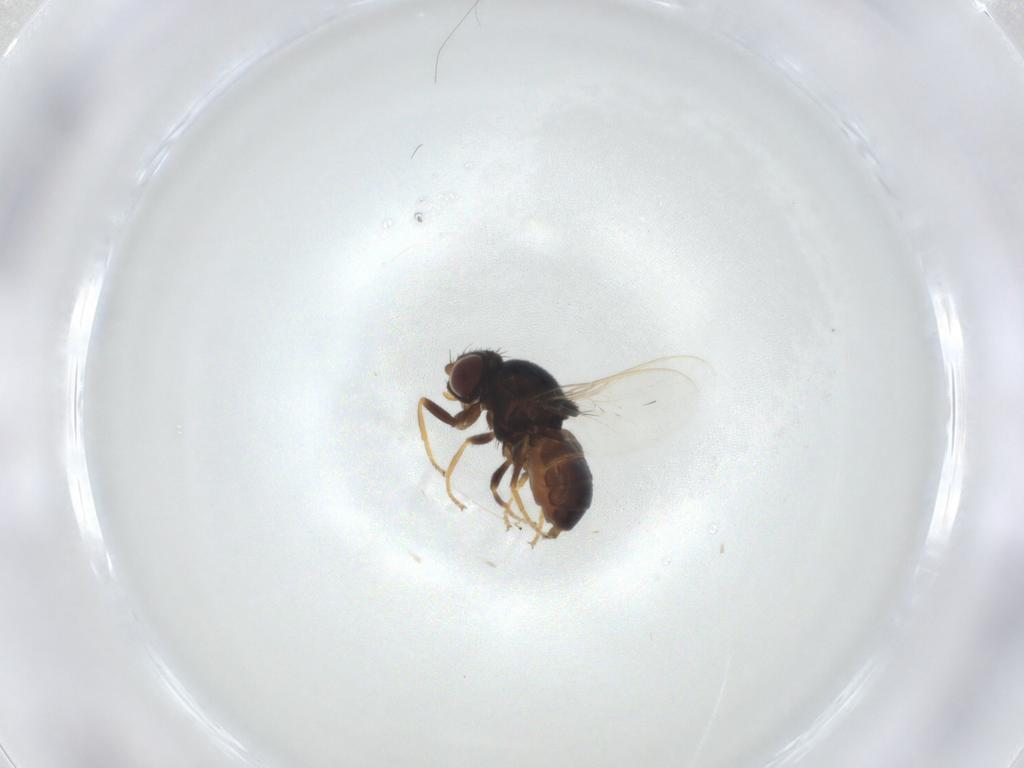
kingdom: Animalia
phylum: Arthropoda
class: Insecta
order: Diptera
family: Chloropidae
